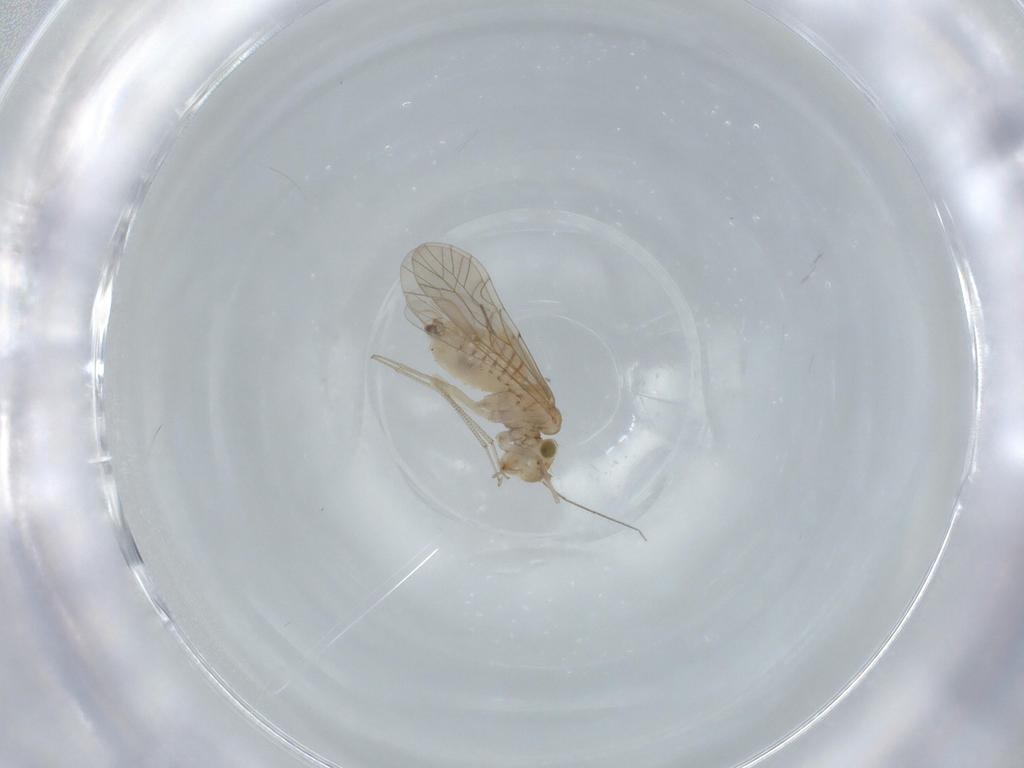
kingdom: Animalia
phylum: Arthropoda
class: Insecta
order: Psocodea
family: Lachesillidae
